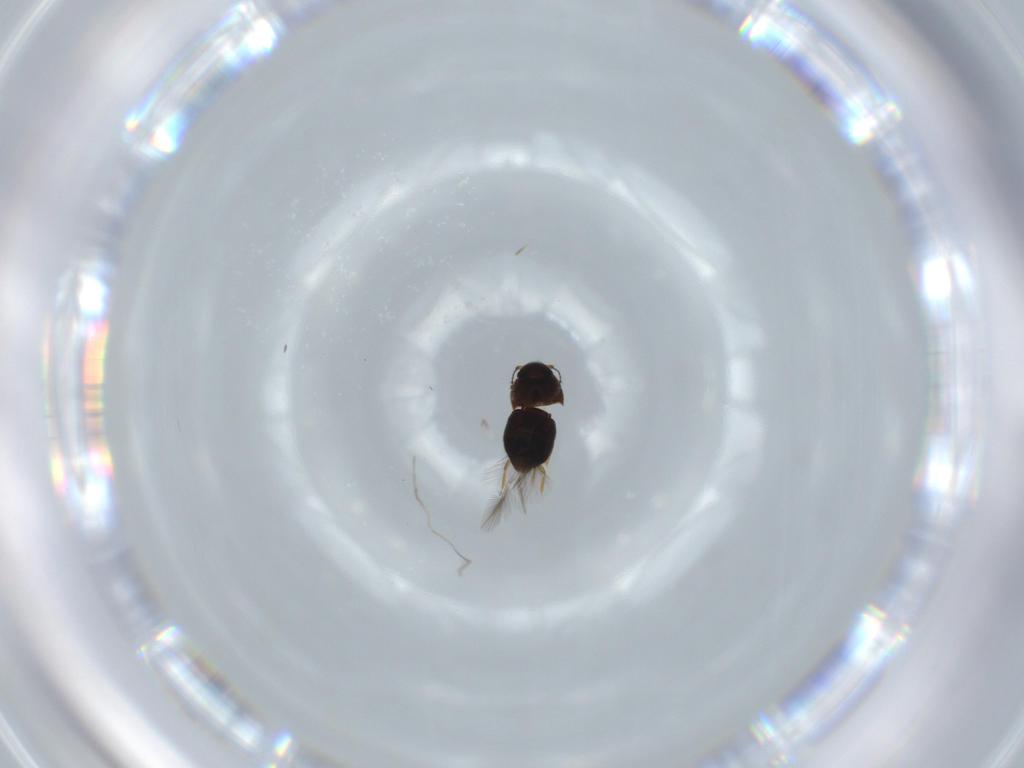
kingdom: Animalia
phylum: Arthropoda
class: Insecta
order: Coleoptera
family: Ptiliidae
